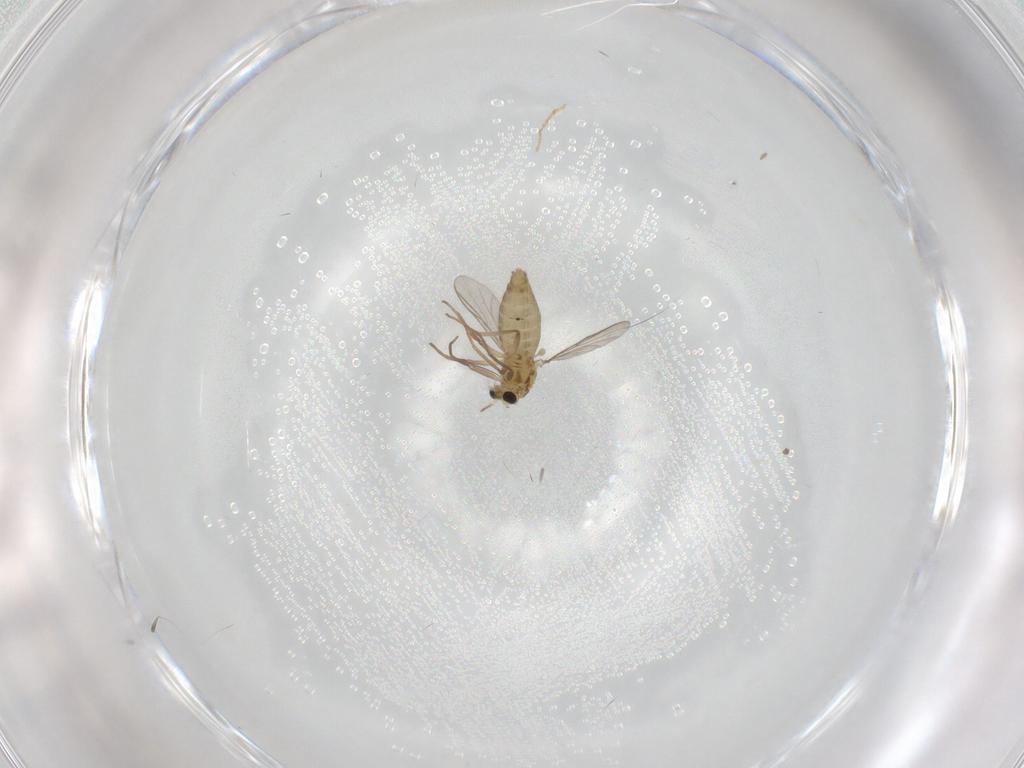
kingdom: Animalia
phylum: Arthropoda
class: Insecta
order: Diptera
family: Chironomidae
